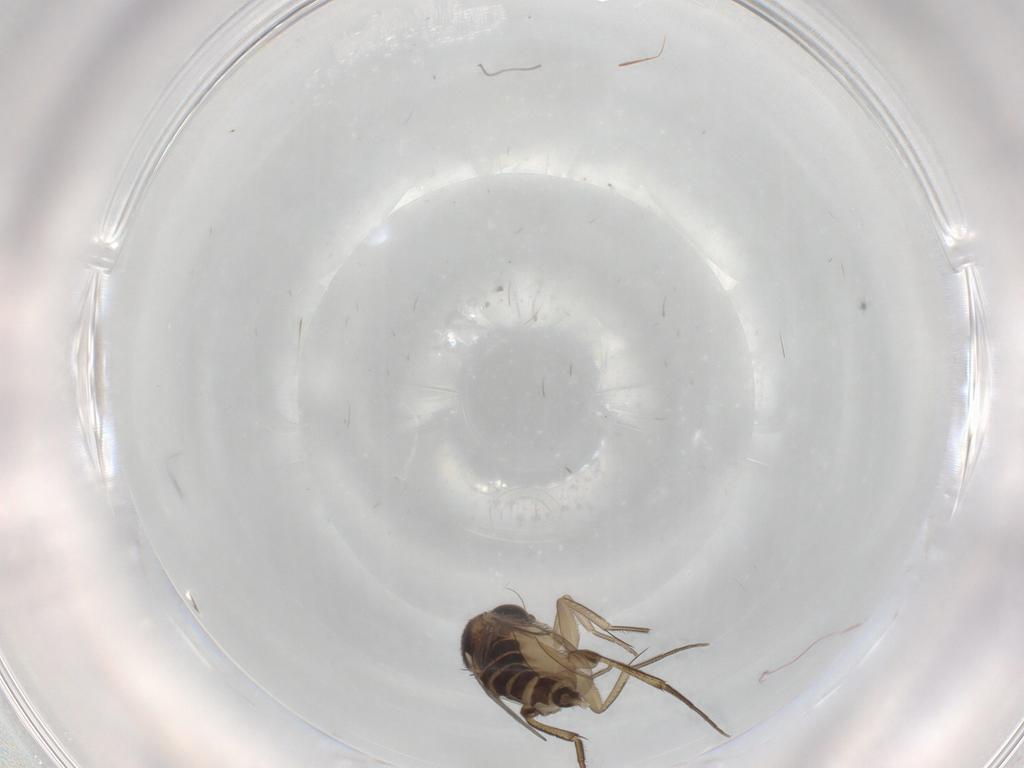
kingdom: Animalia
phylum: Arthropoda
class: Insecta
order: Diptera
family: Phoridae
